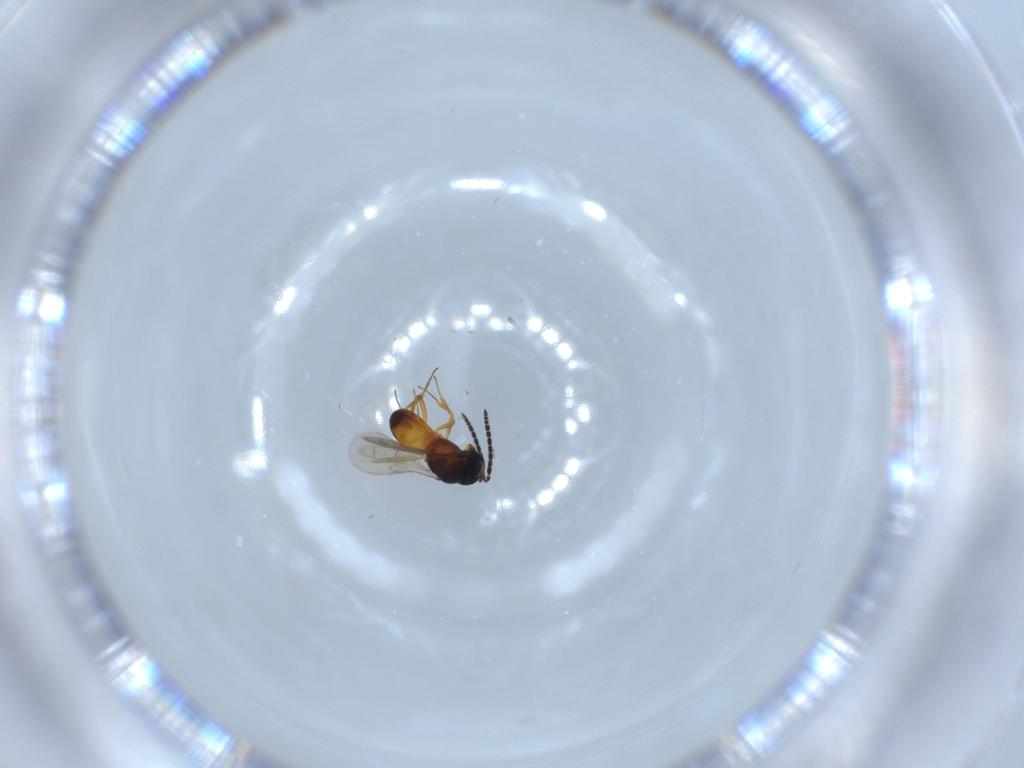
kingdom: Animalia
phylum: Arthropoda
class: Insecta
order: Hymenoptera
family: Scelionidae
